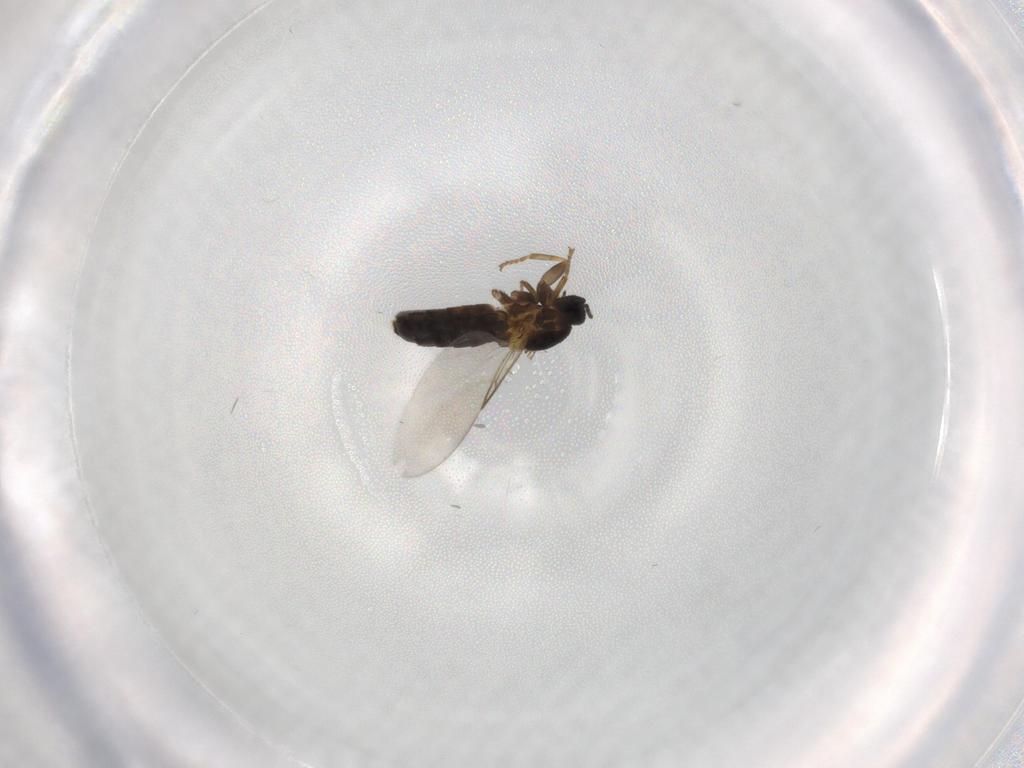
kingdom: Animalia
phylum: Arthropoda
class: Insecta
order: Diptera
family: Scatopsidae
